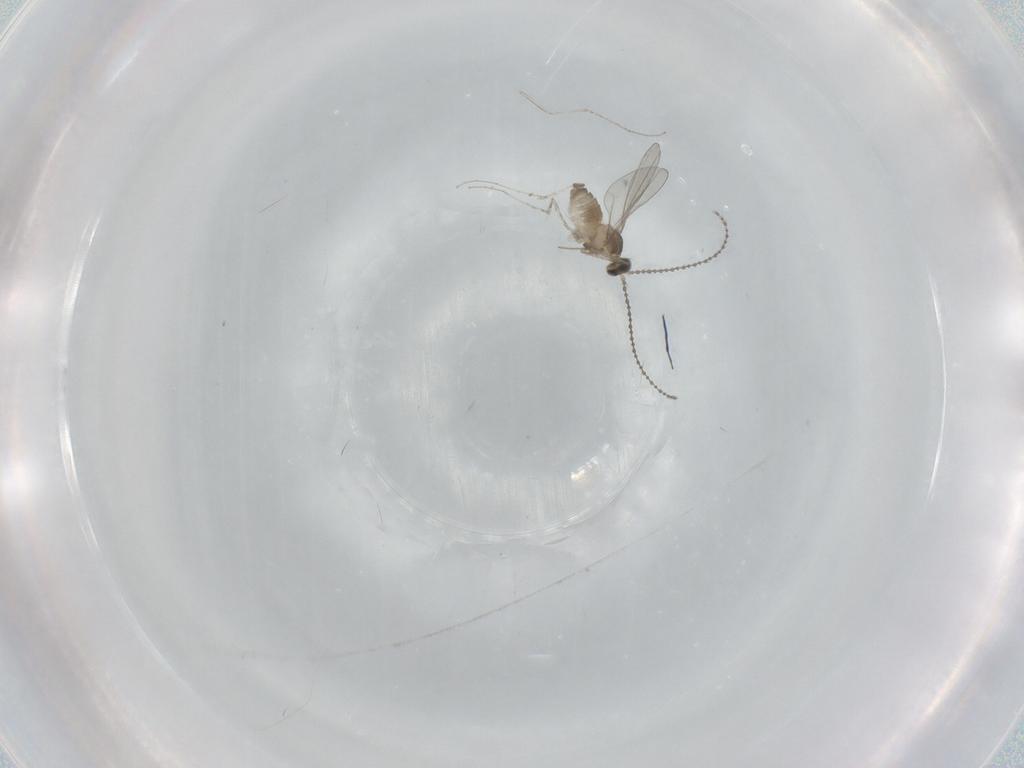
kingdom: Animalia
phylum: Arthropoda
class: Insecta
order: Diptera
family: Cecidomyiidae
